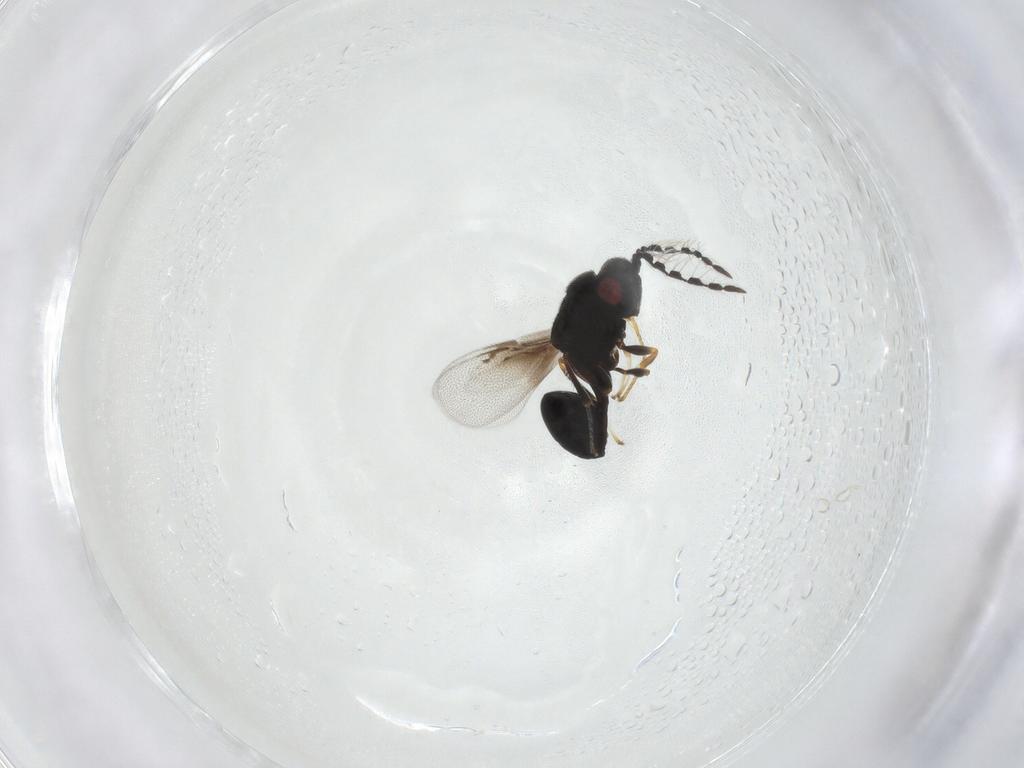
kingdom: Animalia
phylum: Arthropoda
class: Insecta
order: Hymenoptera
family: Eurytomidae
